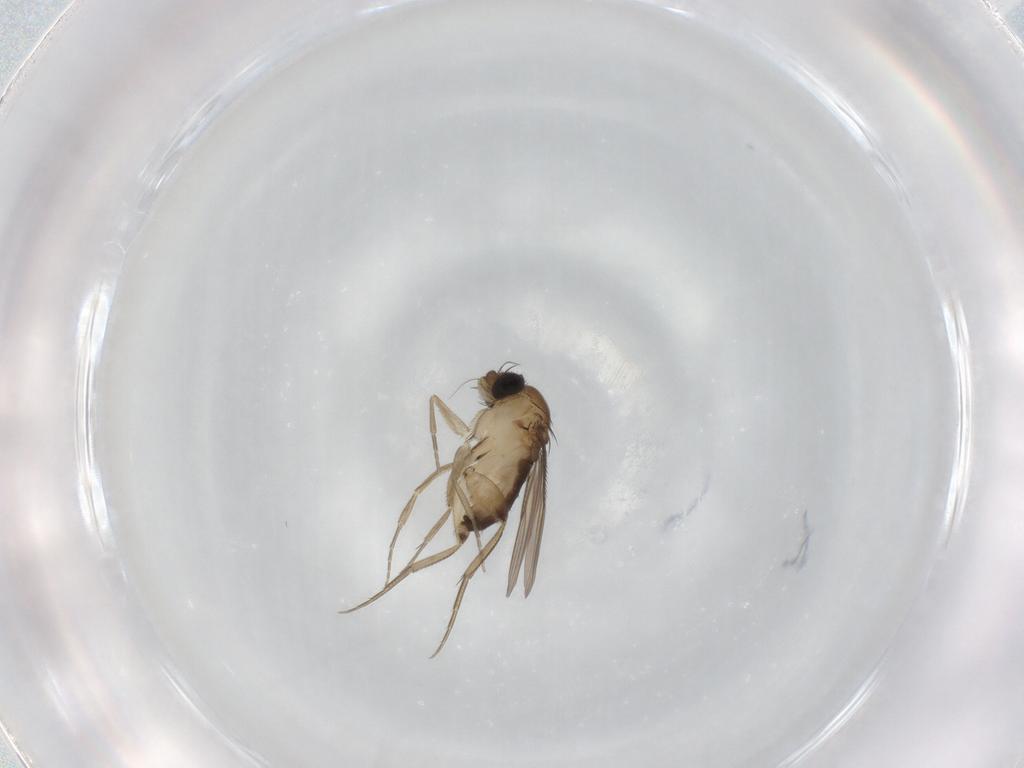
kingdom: Animalia
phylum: Arthropoda
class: Insecta
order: Diptera
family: Phoridae
